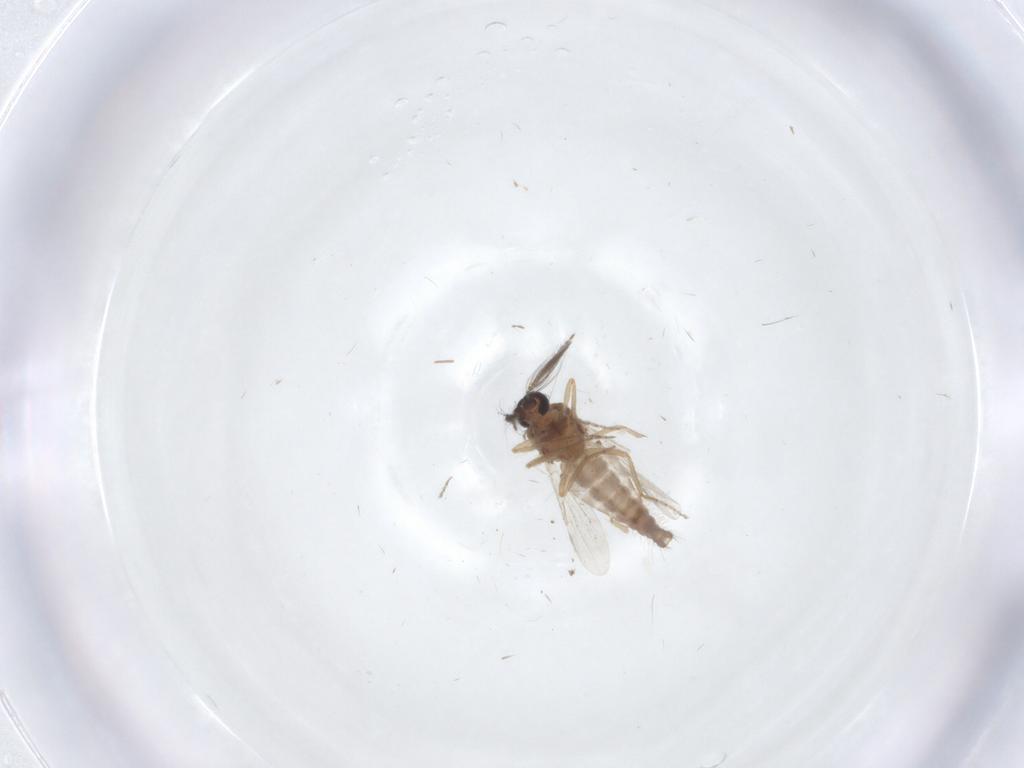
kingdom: Animalia
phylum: Arthropoda
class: Insecta
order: Diptera
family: Ceratopogonidae
